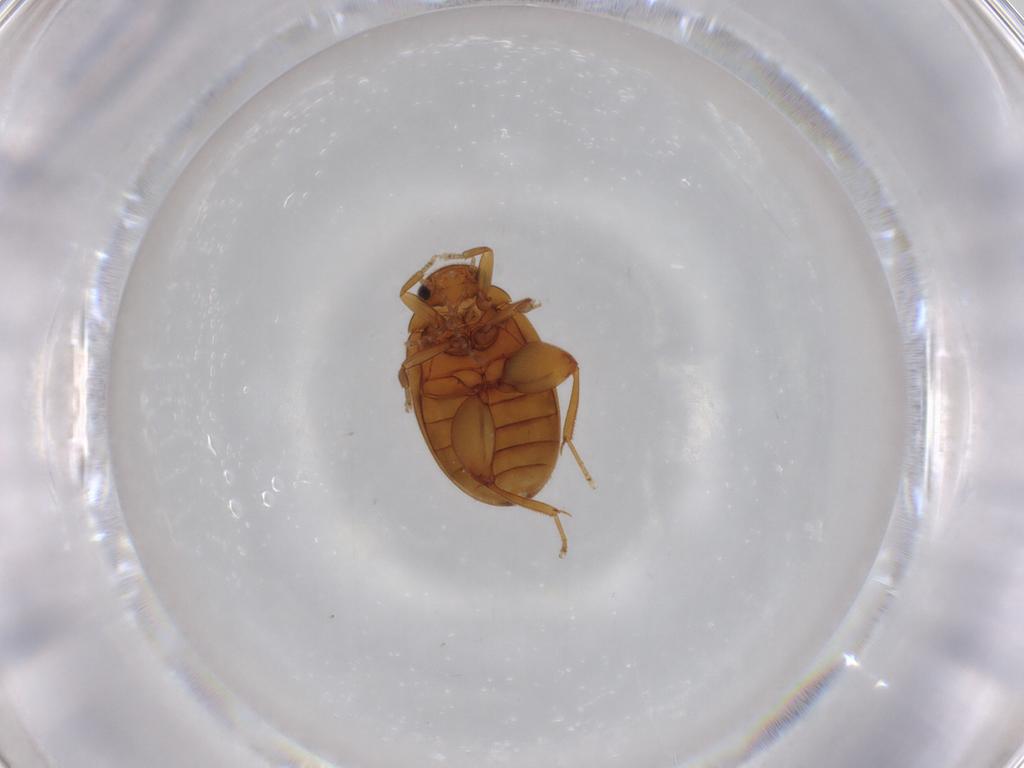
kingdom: Animalia
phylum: Arthropoda
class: Insecta
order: Coleoptera
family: Scirtidae
